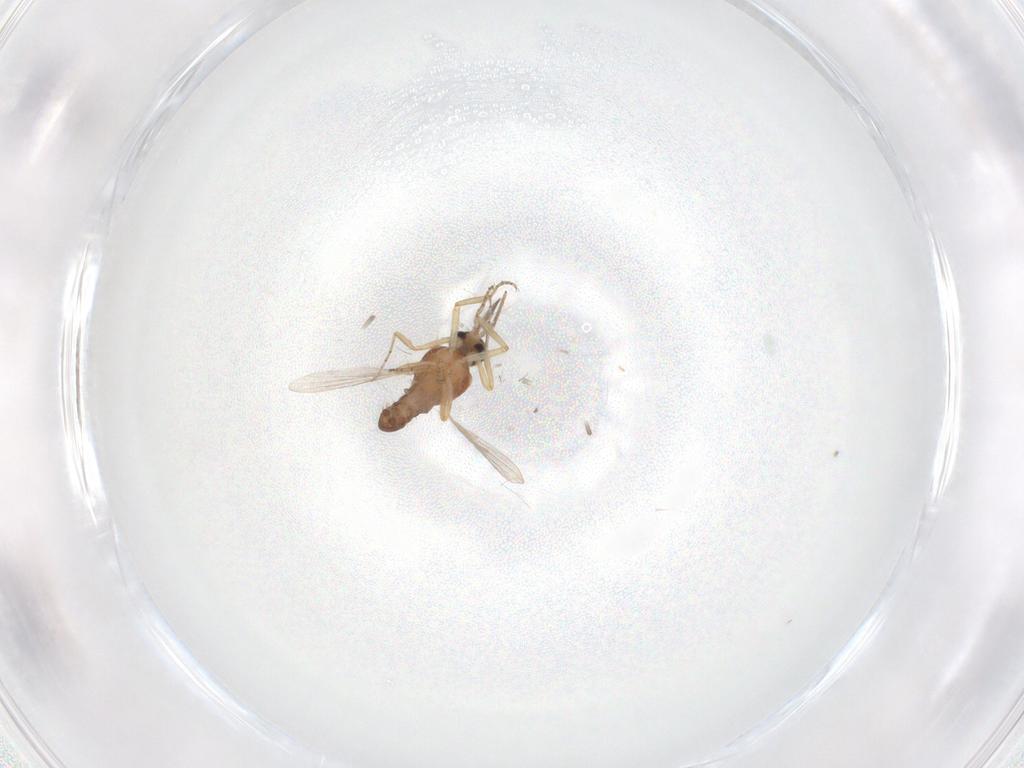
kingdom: Animalia
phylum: Arthropoda
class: Insecta
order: Diptera
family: Ceratopogonidae
